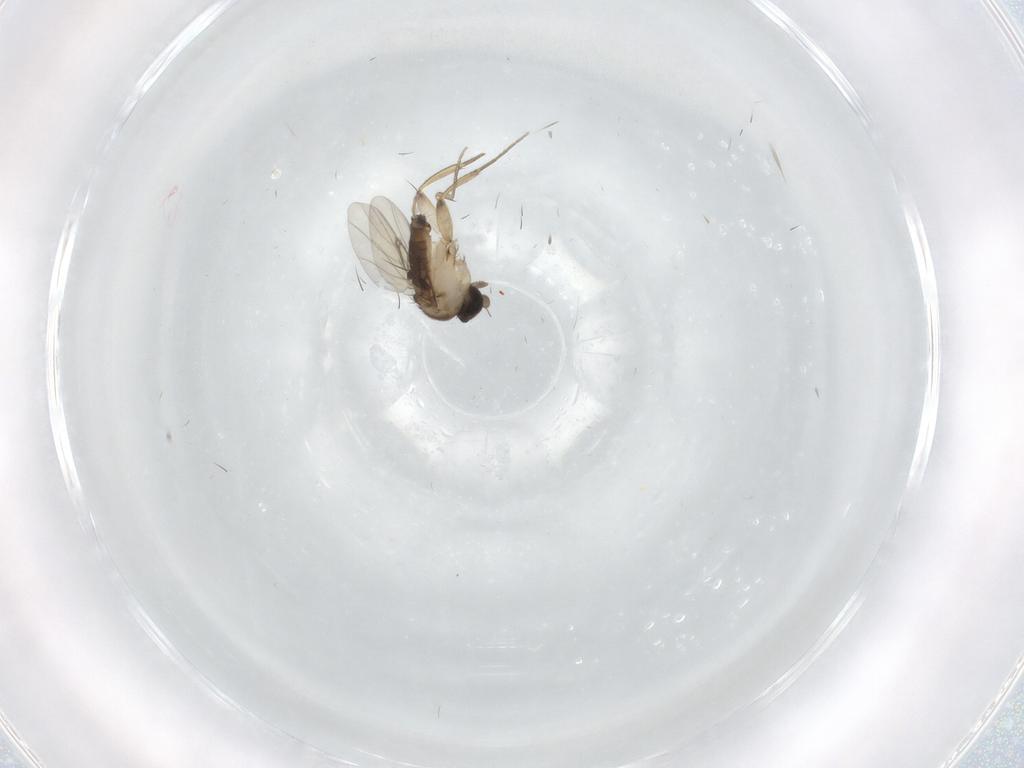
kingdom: Animalia
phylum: Arthropoda
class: Insecta
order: Diptera
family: Phoridae
